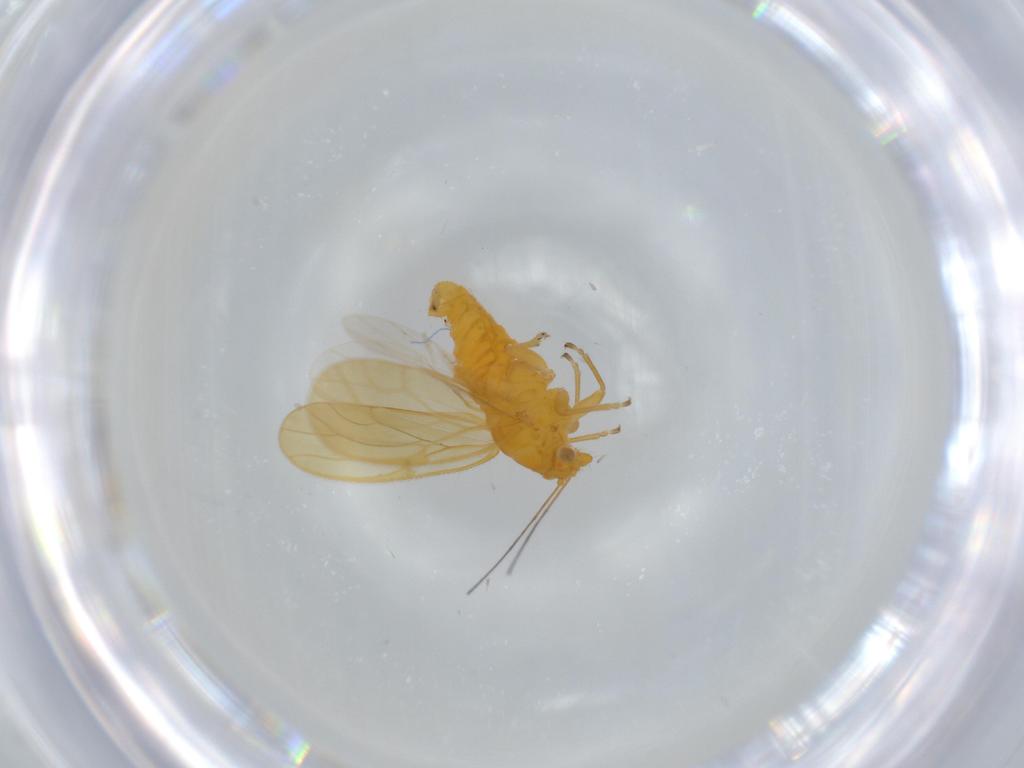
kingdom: Animalia
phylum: Arthropoda
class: Insecta
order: Hemiptera
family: Psyllidae
